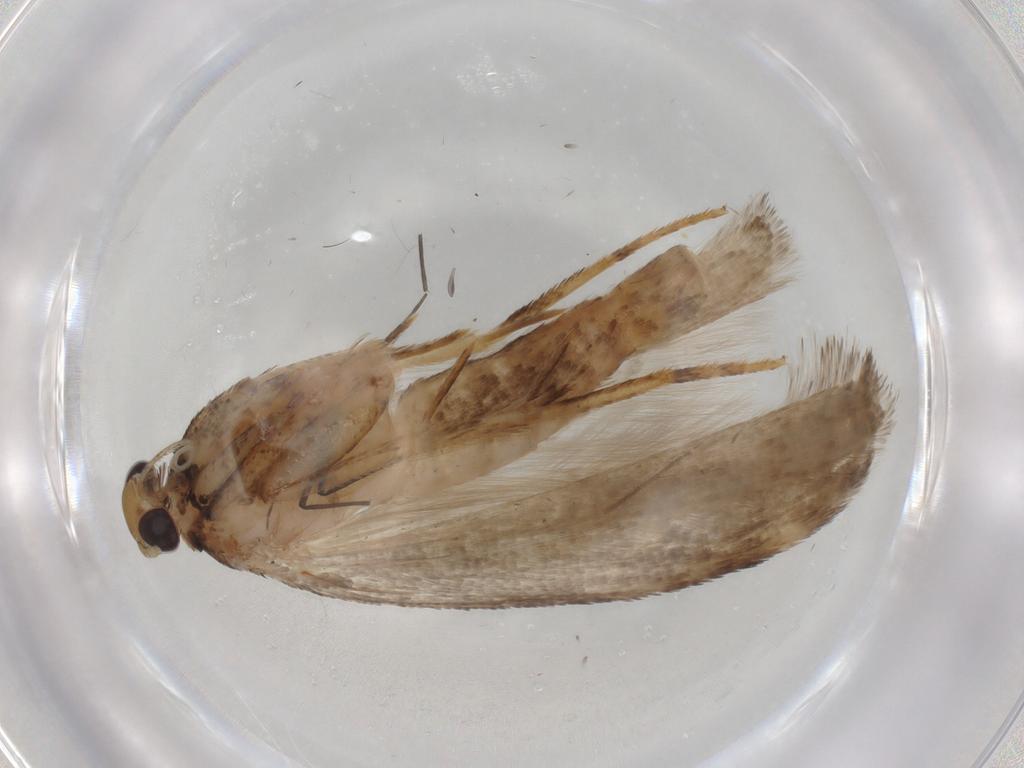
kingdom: Animalia
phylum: Arthropoda
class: Insecta
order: Lepidoptera
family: Gelechiidae
